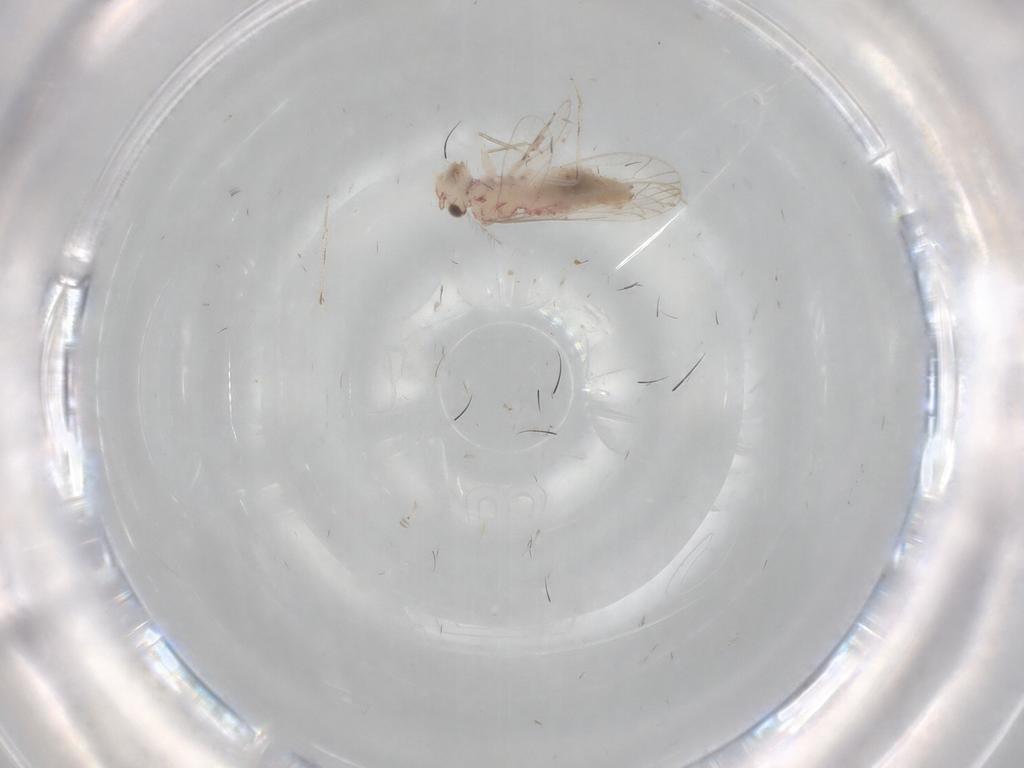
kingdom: Animalia
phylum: Arthropoda
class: Insecta
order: Psocodea
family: Caeciliusidae
